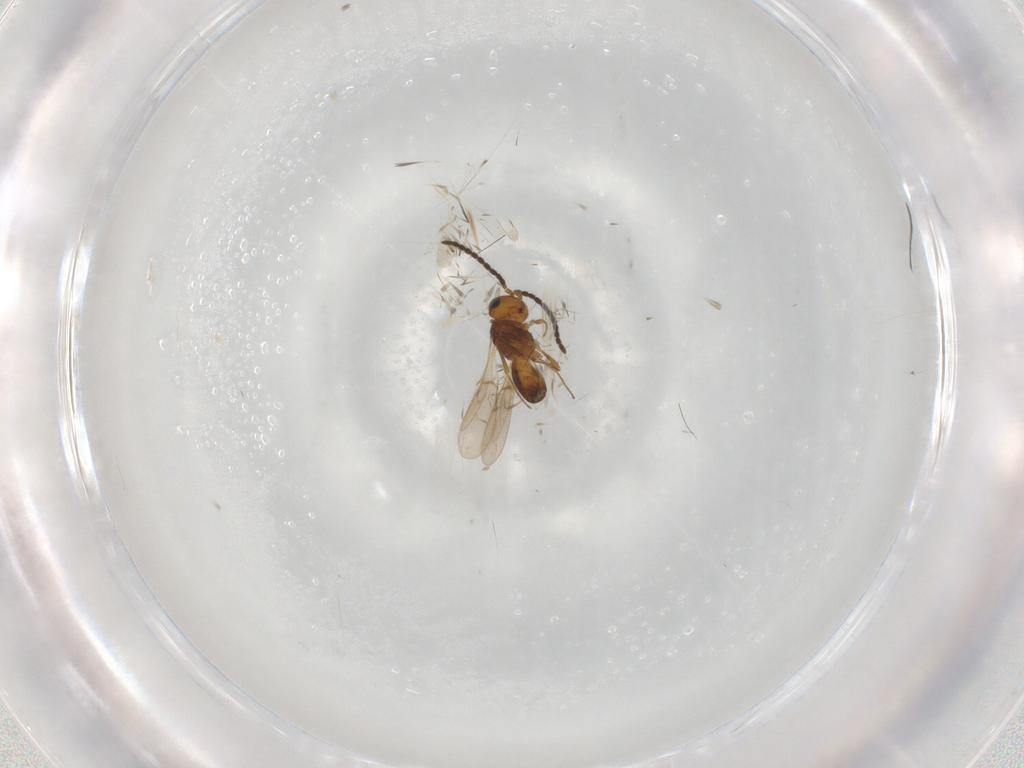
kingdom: Animalia
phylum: Arthropoda
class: Insecta
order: Hymenoptera
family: Scelionidae
